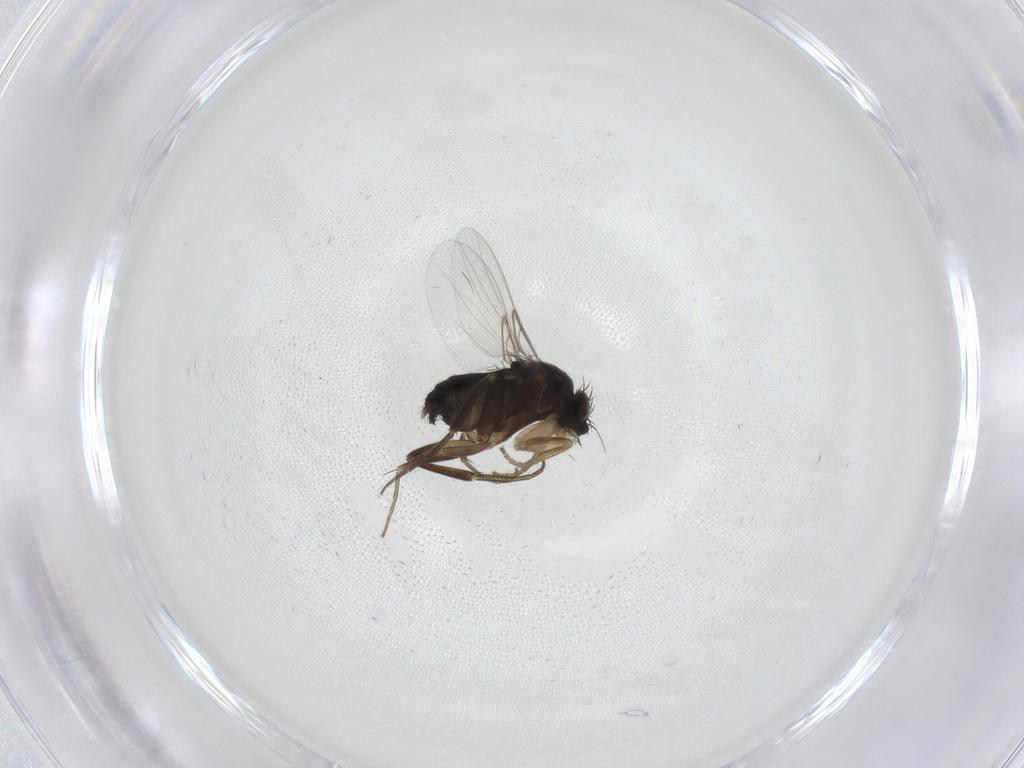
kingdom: Animalia
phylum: Arthropoda
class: Insecta
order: Diptera
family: Phoridae
